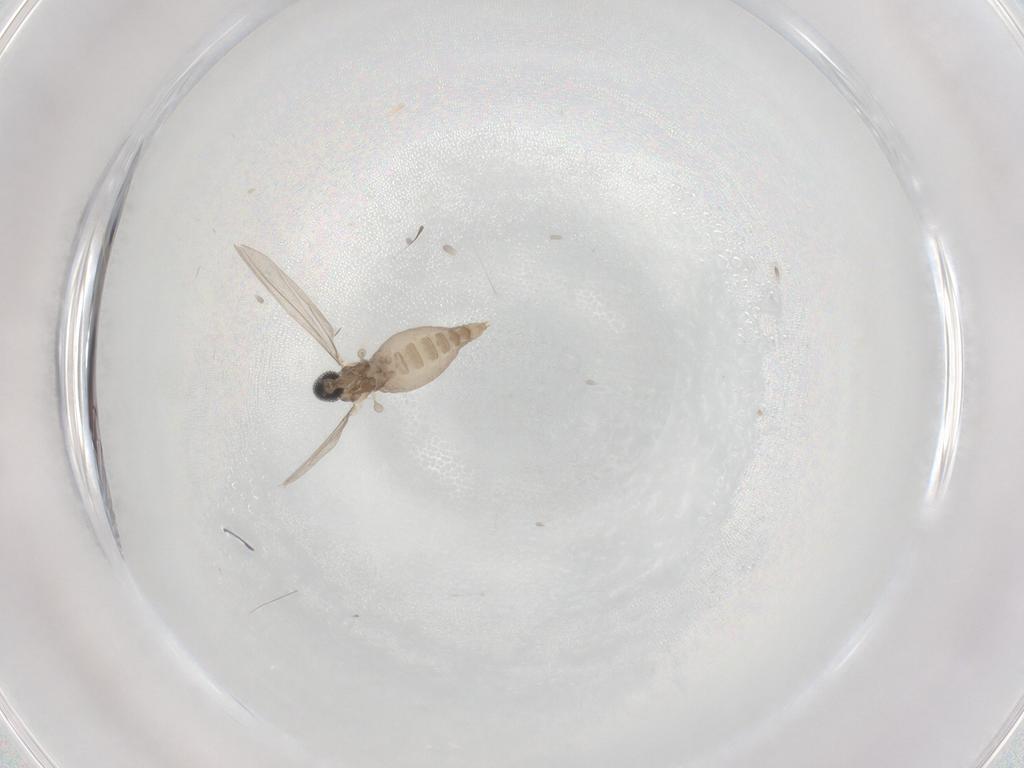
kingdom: Animalia
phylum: Arthropoda
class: Insecta
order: Diptera
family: Cecidomyiidae
